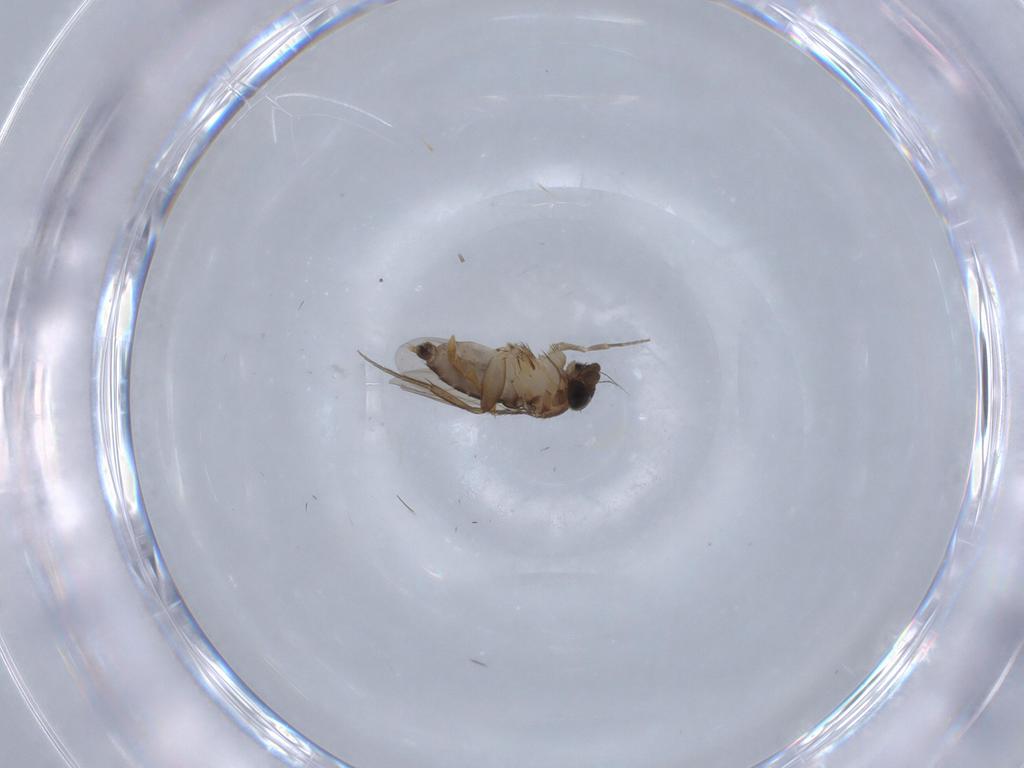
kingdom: Animalia
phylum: Arthropoda
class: Insecta
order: Diptera
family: Phoridae
